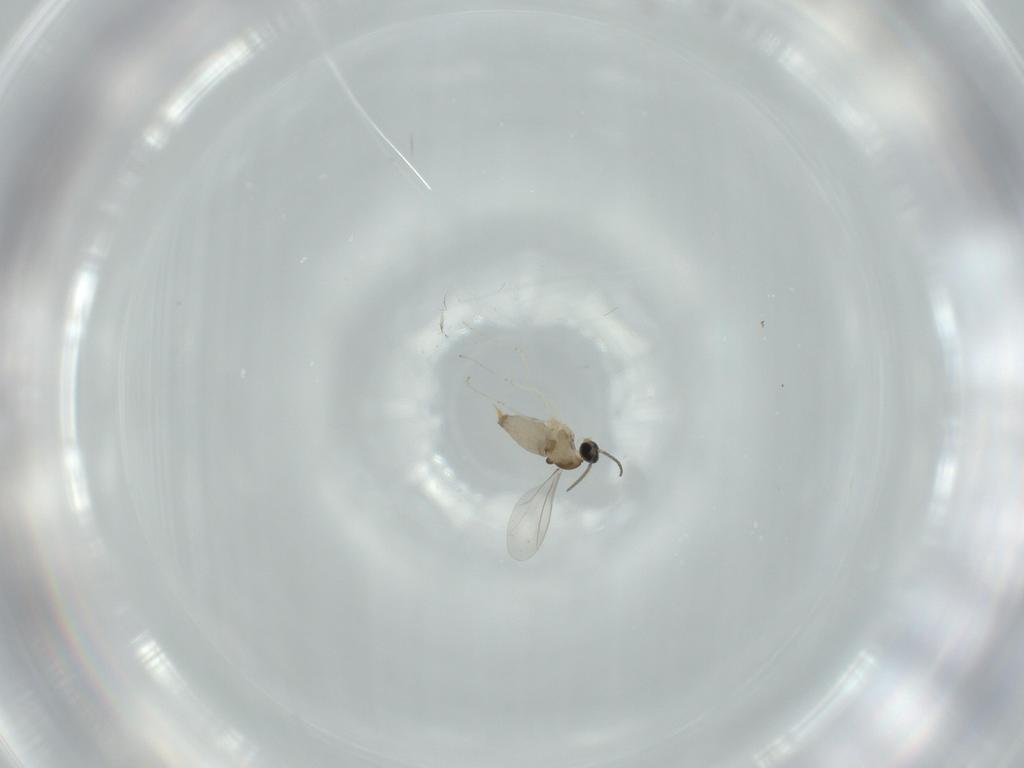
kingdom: Animalia
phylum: Arthropoda
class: Insecta
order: Diptera
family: Cecidomyiidae
